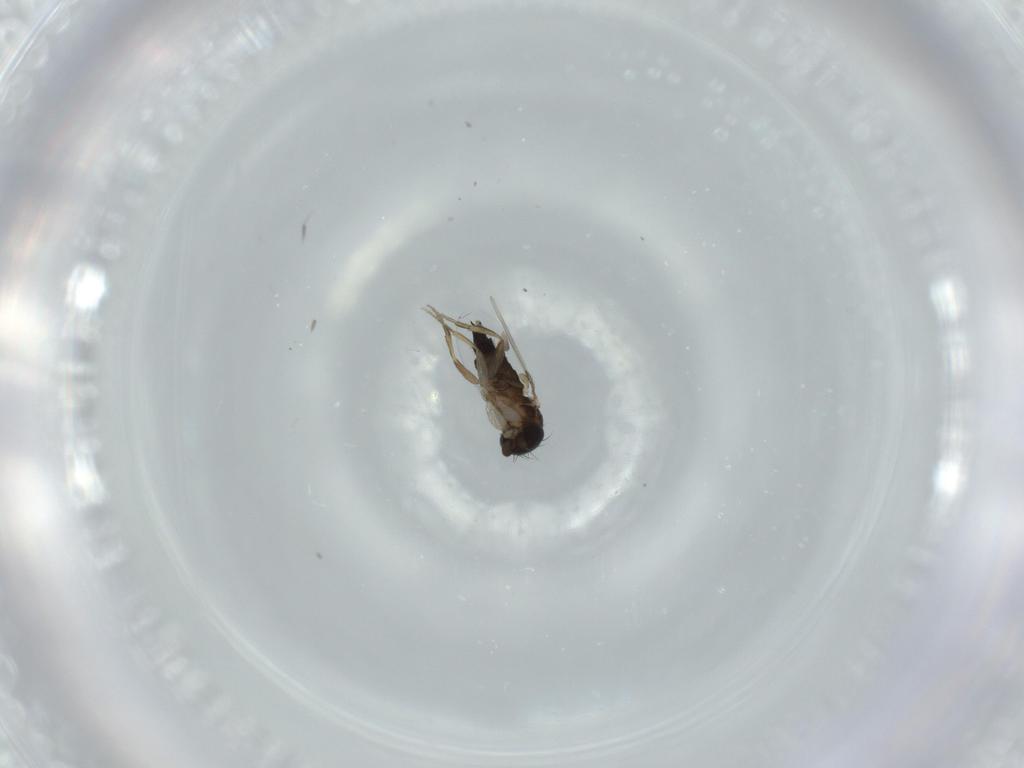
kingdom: Animalia
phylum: Arthropoda
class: Insecta
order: Diptera
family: Phoridae
